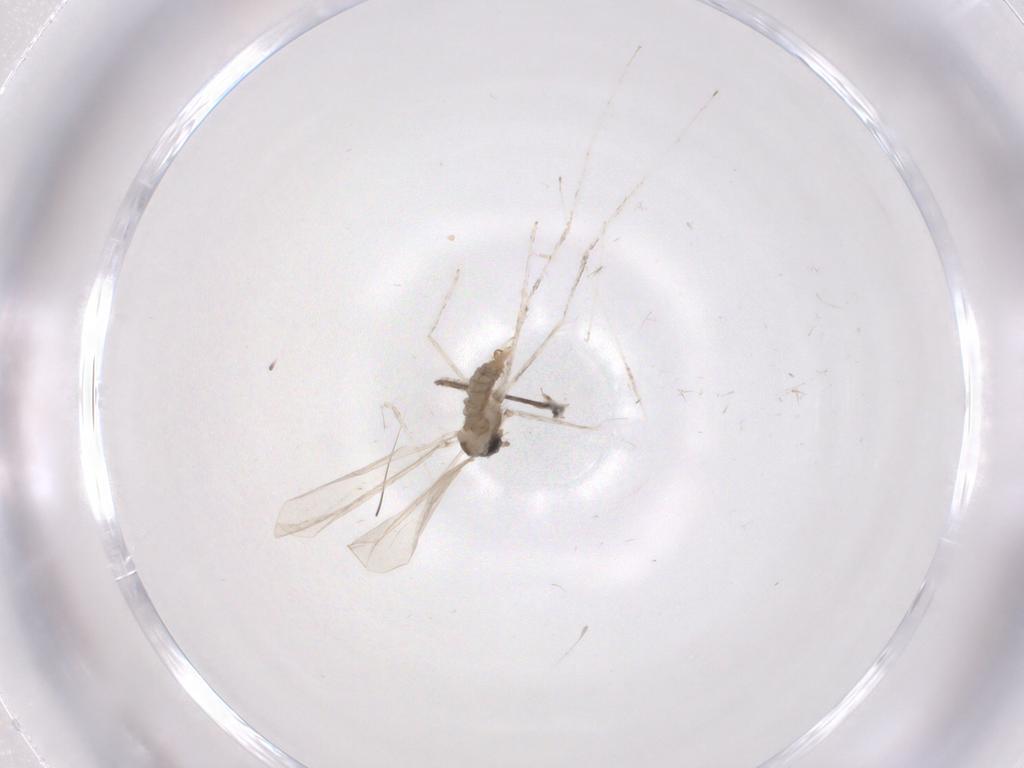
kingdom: Animalia
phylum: Arthropoda
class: Insecta
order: Diptera
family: Cecidomyiidae
